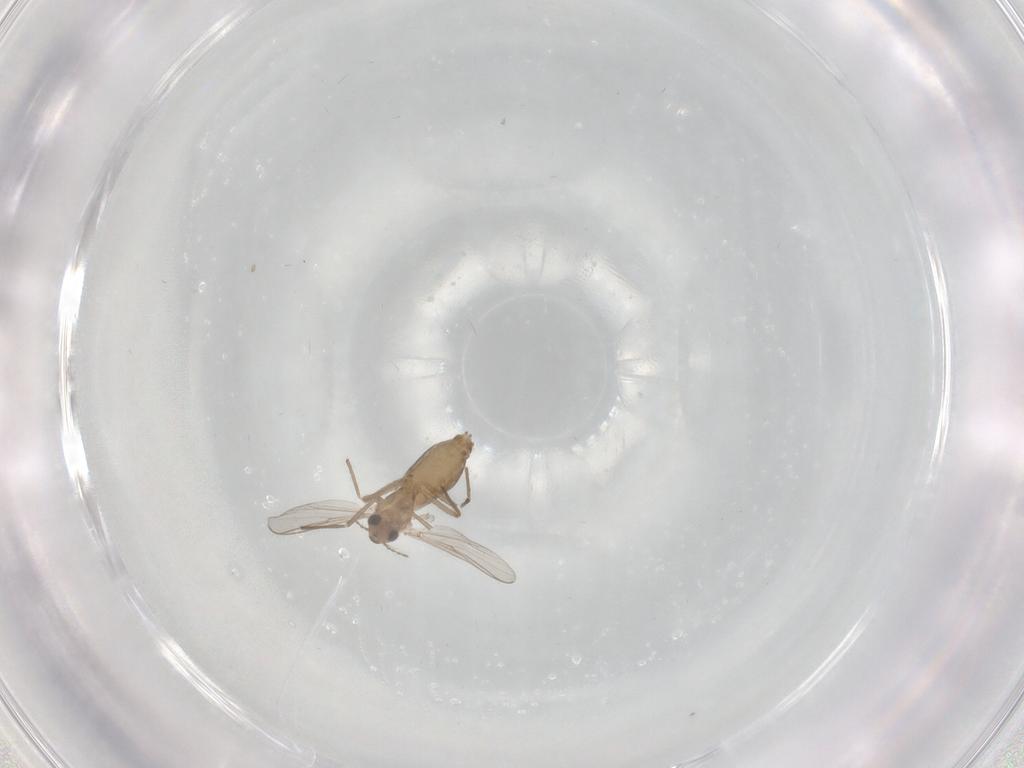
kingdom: Animalia
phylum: Arthropoda
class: Insecta
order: Diptera
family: Chironomidae
